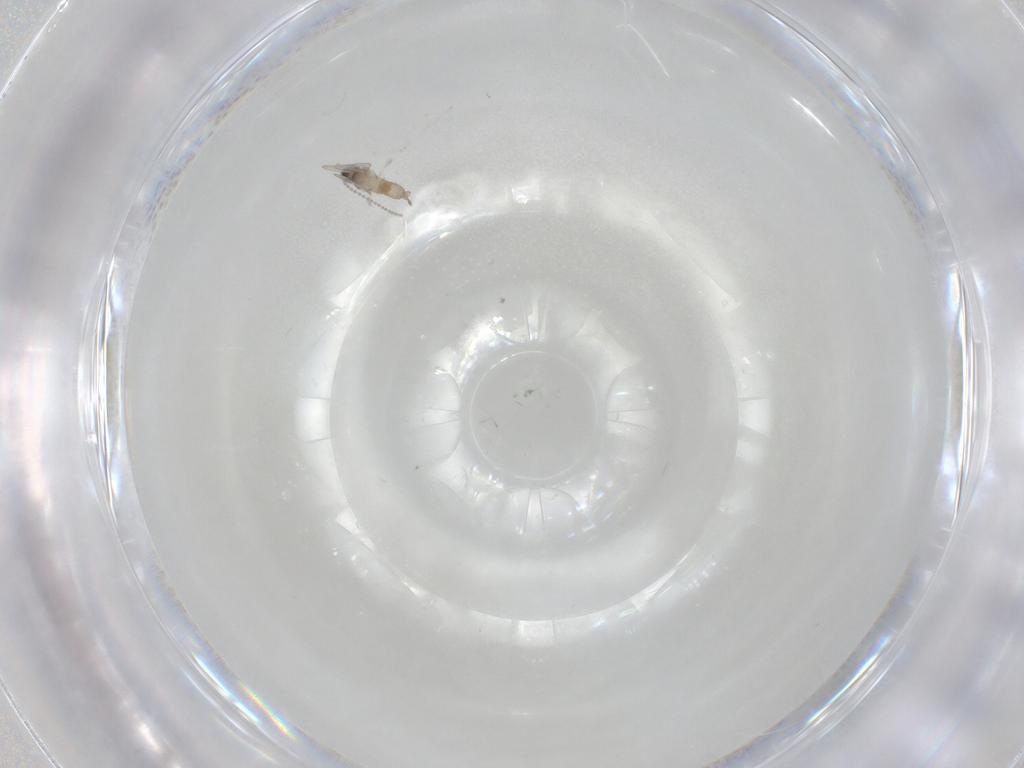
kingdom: Animalia
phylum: Arthropoda
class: Insecta
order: Diptera
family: Cecidomyiidae
